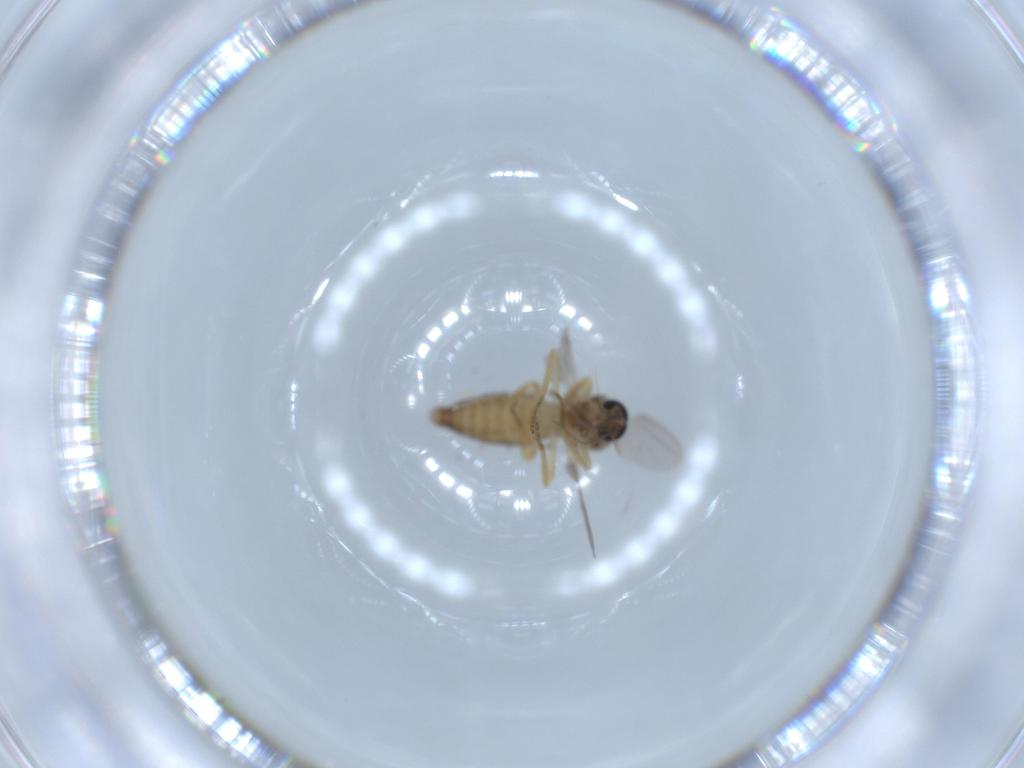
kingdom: Animalia
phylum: Arthropoda
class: Insecta
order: Diptera
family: Ceratopogonidae
